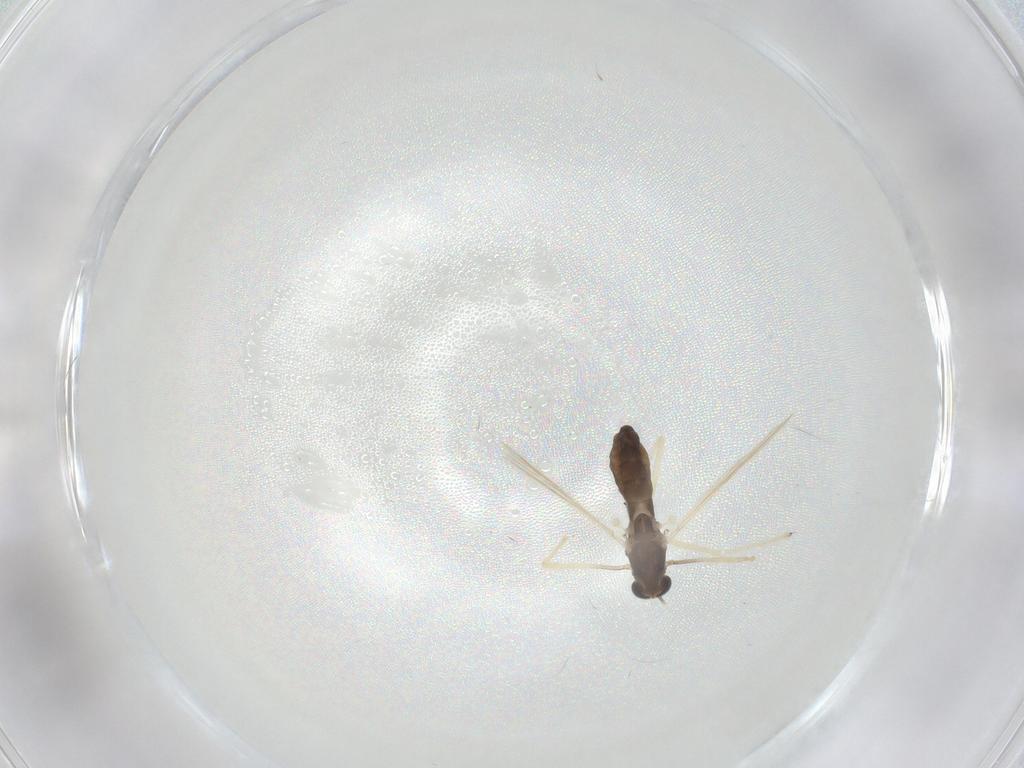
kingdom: Animalia
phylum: Arthropoda
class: Insecta
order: Diptera
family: Chironomidae
